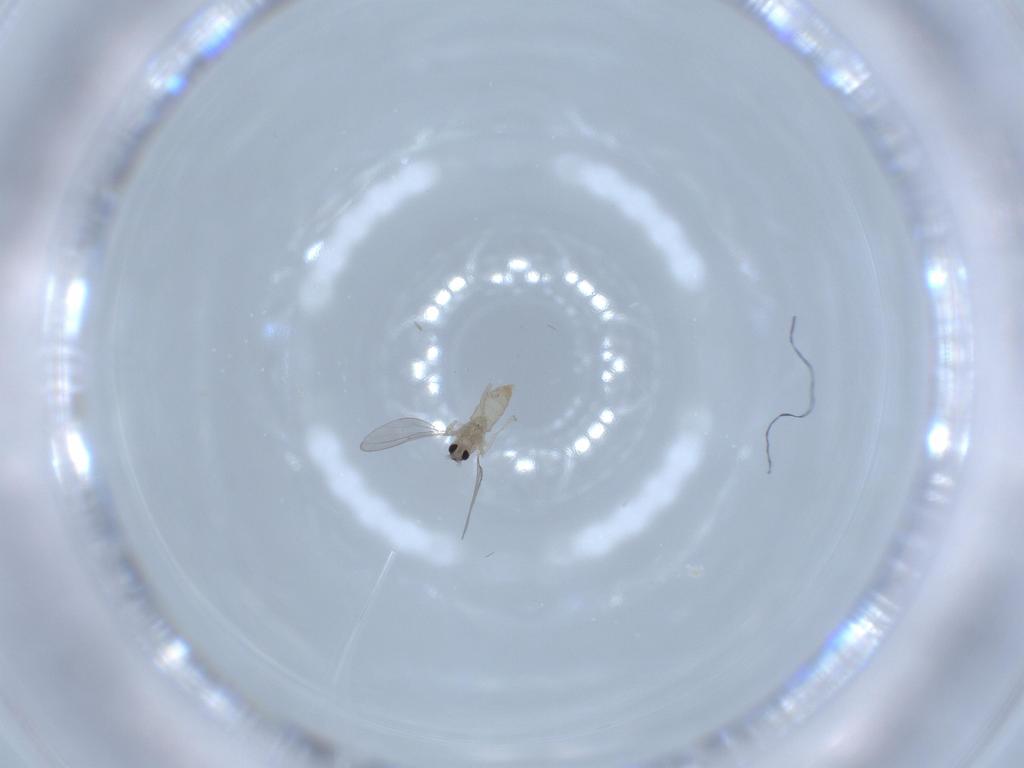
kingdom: Animalia
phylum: Arthropoda
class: Insecta
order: Diptera
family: Cecidomyiidae
